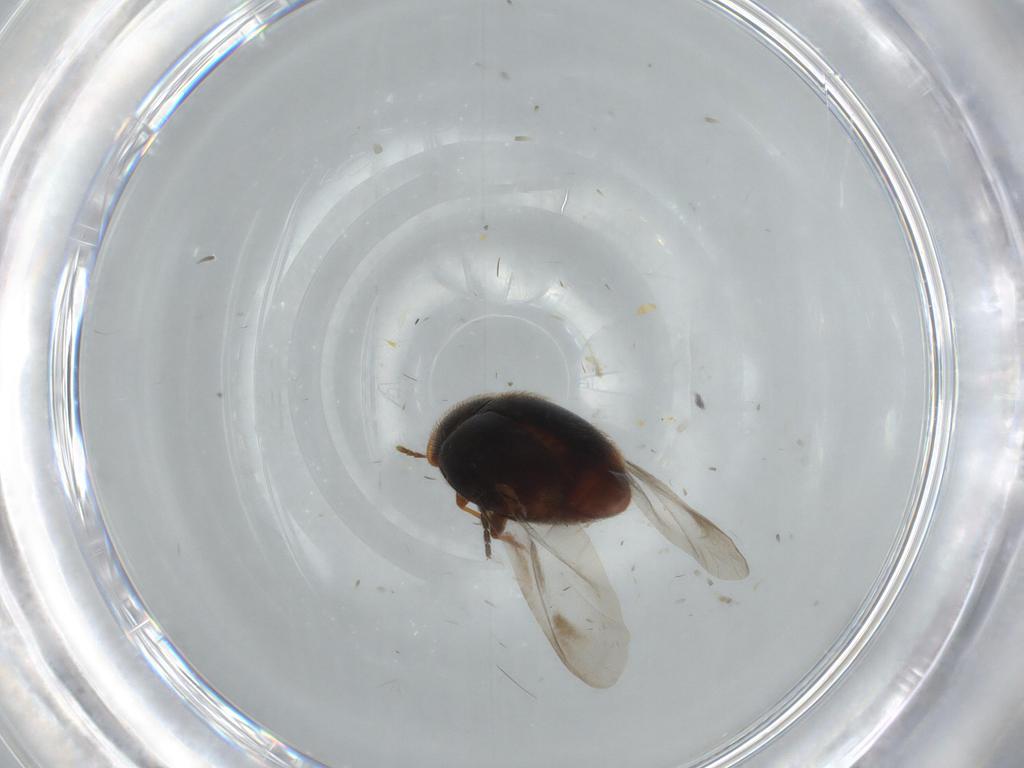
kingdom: Animalia
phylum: Arthropoda
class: Insecta
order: Coleoptera
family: Corylophidae
